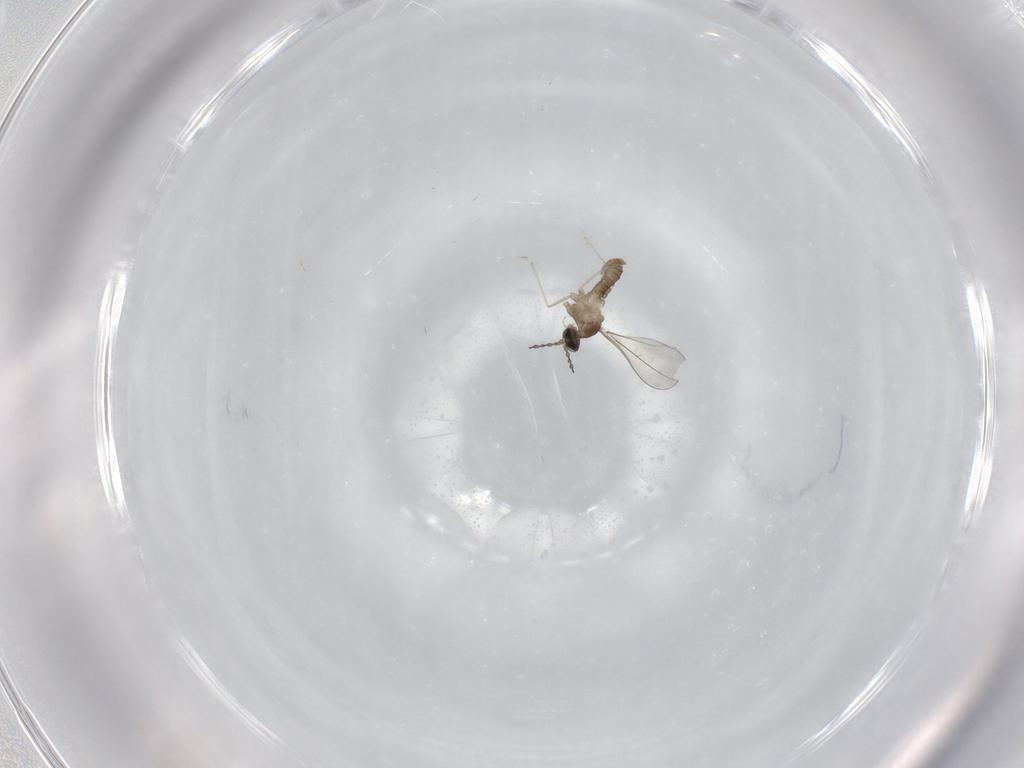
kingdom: Animalia
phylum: Arthropoda
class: Insecta
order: Diptera
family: Cecidomyiidae
